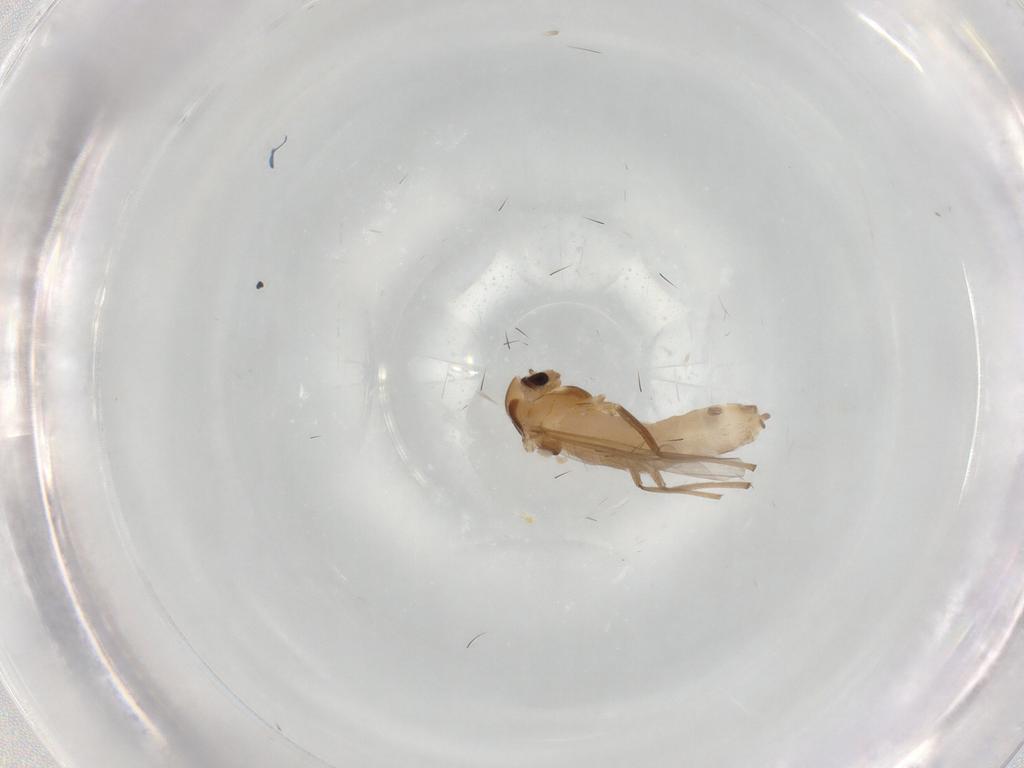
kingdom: Animalia
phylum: Arthropoda
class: Insecta
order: Diptera
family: Chironomidae
